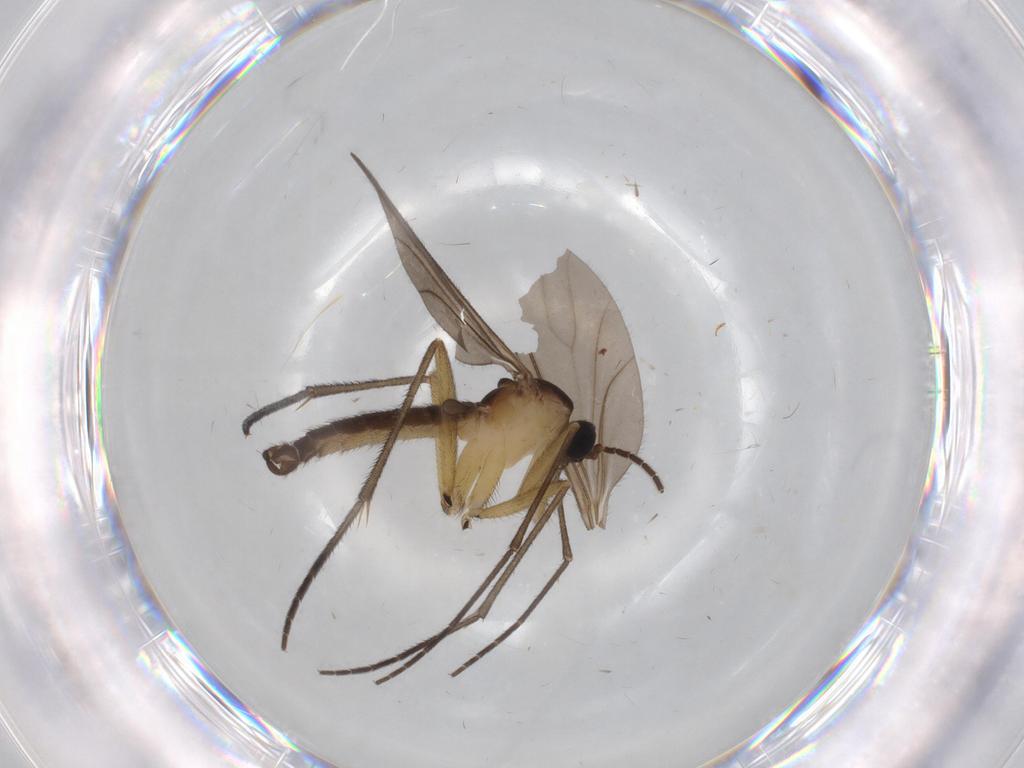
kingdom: Animalia
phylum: Arthropoda
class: Insecta
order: Diptera
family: Sciaridae
